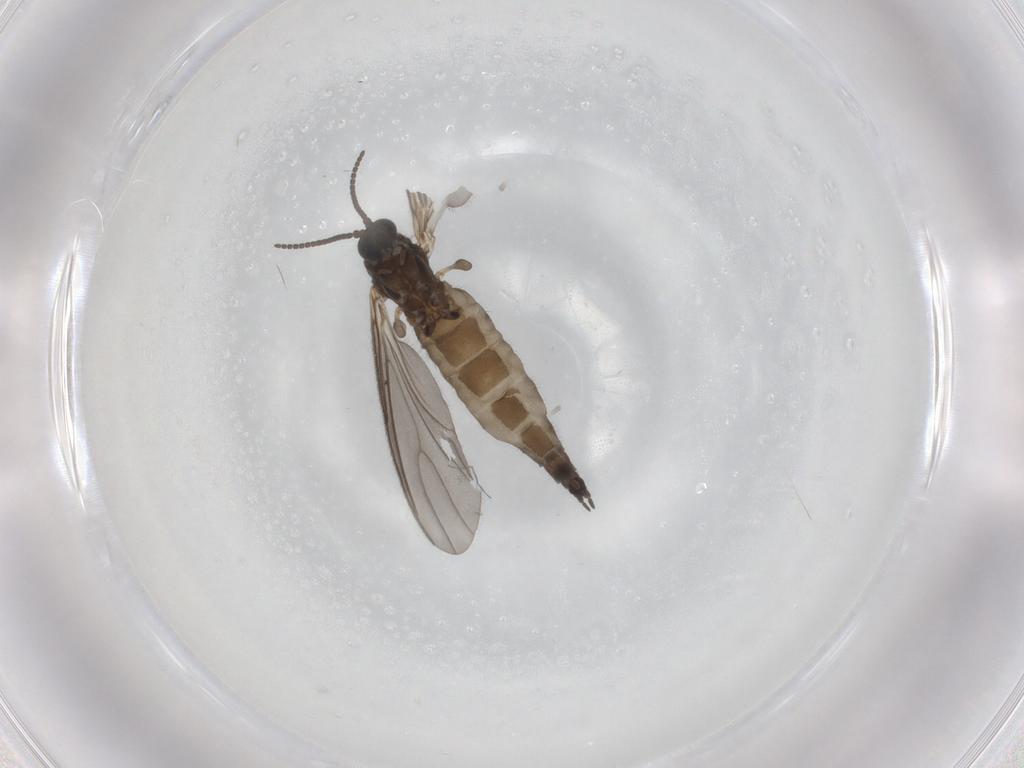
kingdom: Animalia
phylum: Arthropoda
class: Insecta
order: Diptera
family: Sciaridae
